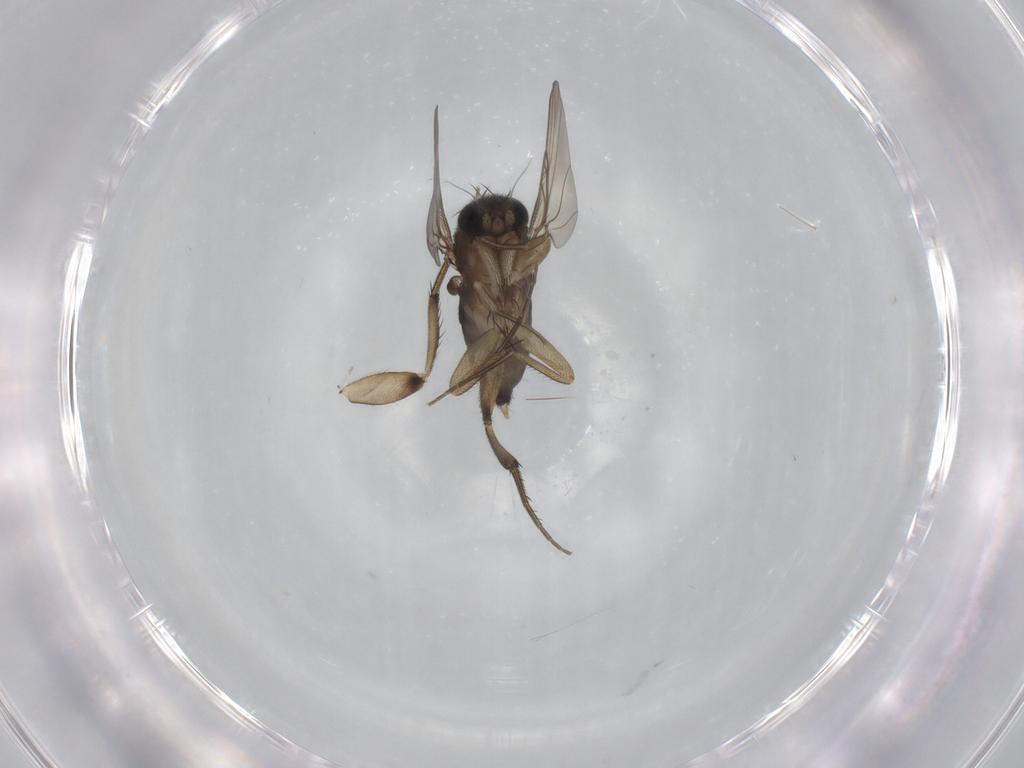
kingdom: Animalia
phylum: Arthropoda
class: Insecta
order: Diptera
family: Phoridae
